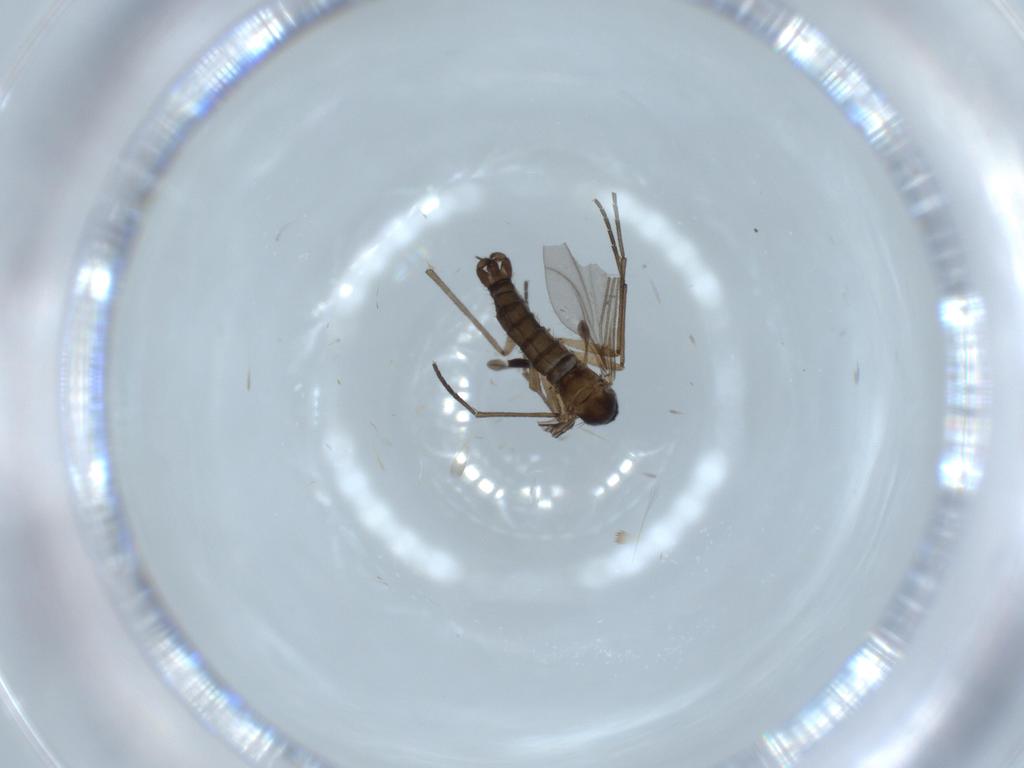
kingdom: Animalia
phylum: Arthropoda
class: Insecta
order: Diptera
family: Sciaridae
